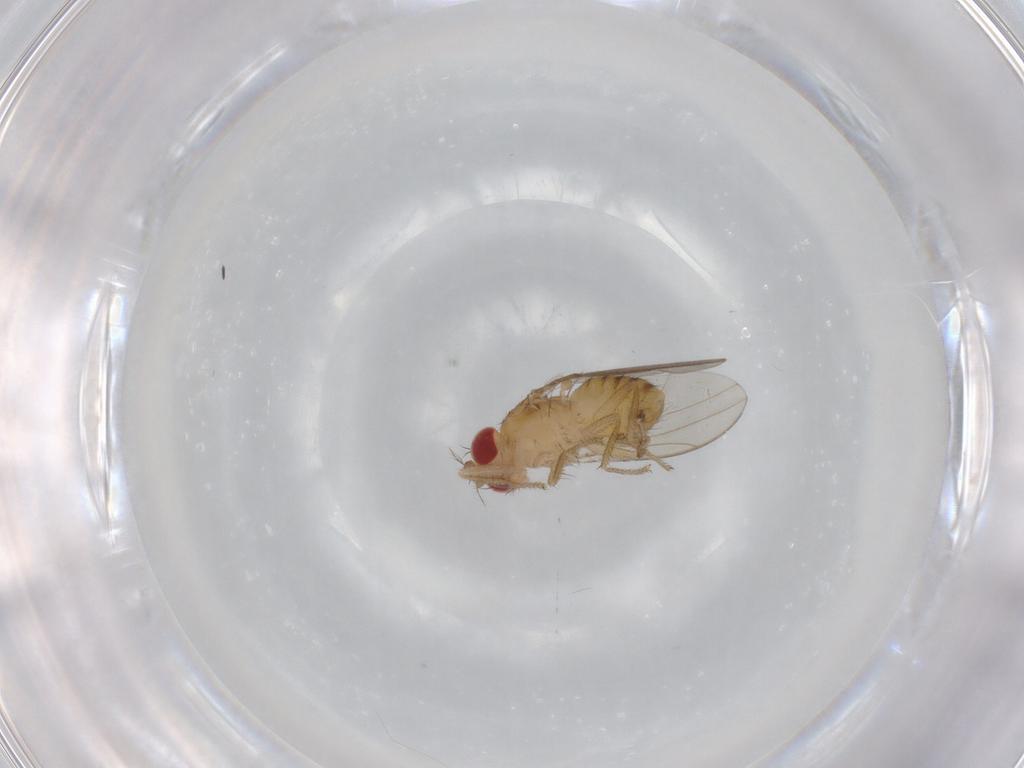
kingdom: Animalia
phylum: Arthropoda
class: Insecta
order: Diptera
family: Drosophilidae
